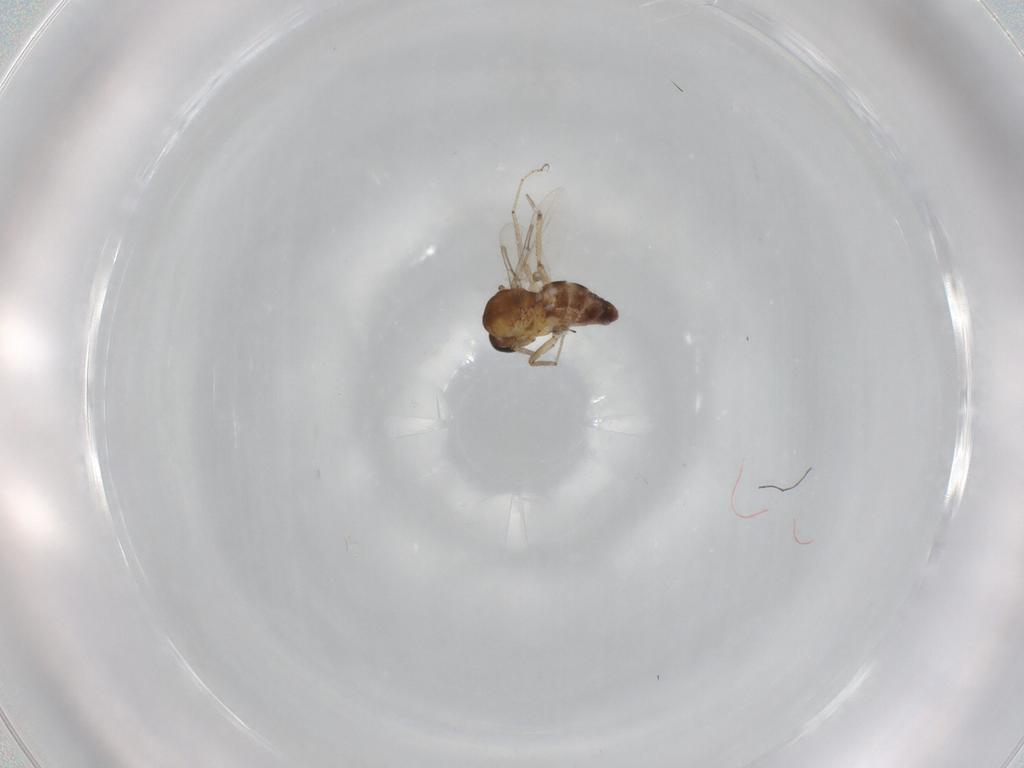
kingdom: Animalia
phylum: Arthropoda
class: Insecta
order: Diptera
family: Ceratopogonidae
